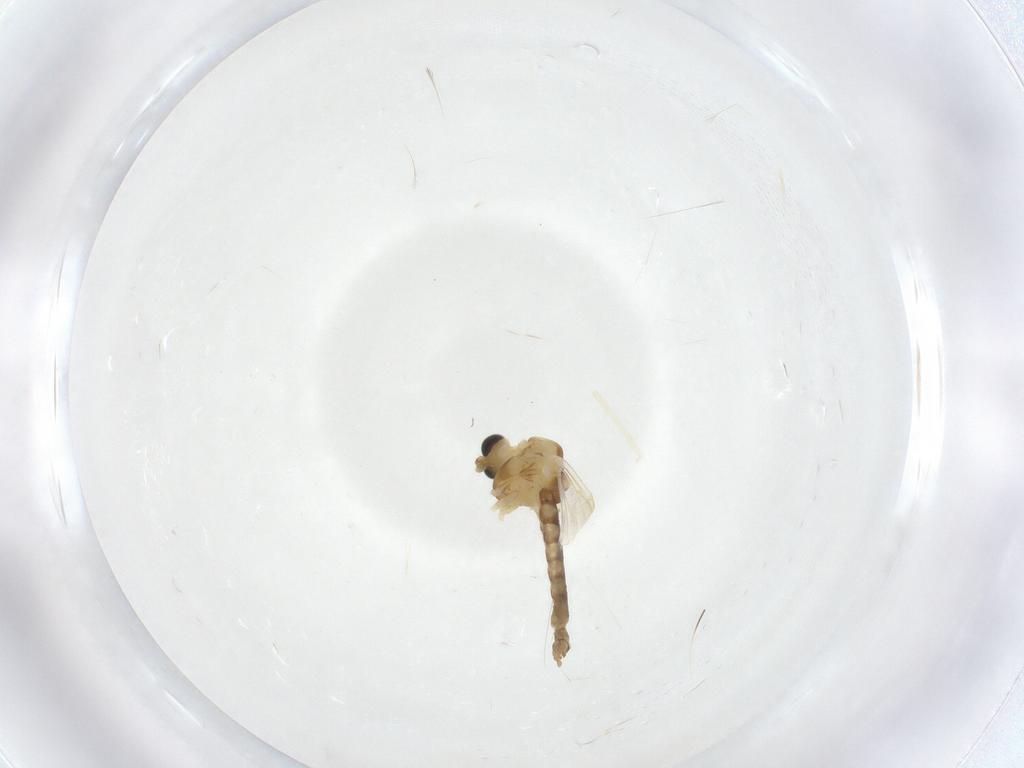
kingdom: Animalia
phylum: Arthropoda
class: Insecta
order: Diptera
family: Chironomidae
